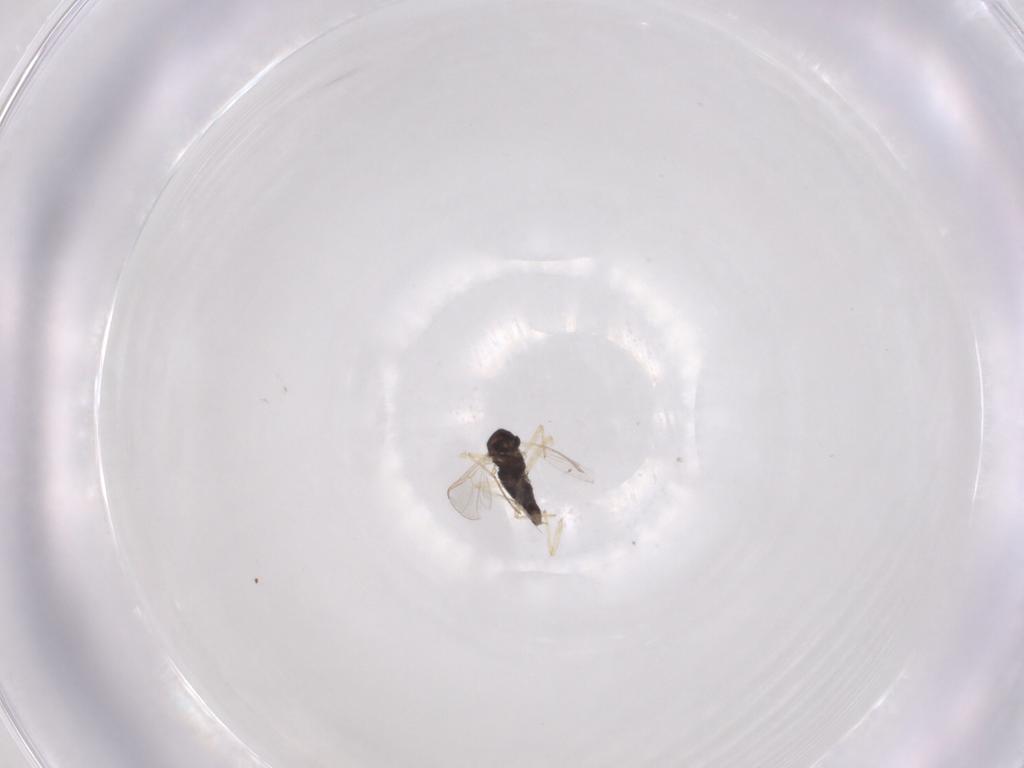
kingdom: Animalia
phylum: Arthropoda
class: Insecta
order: Diptera
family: Chironomidae
